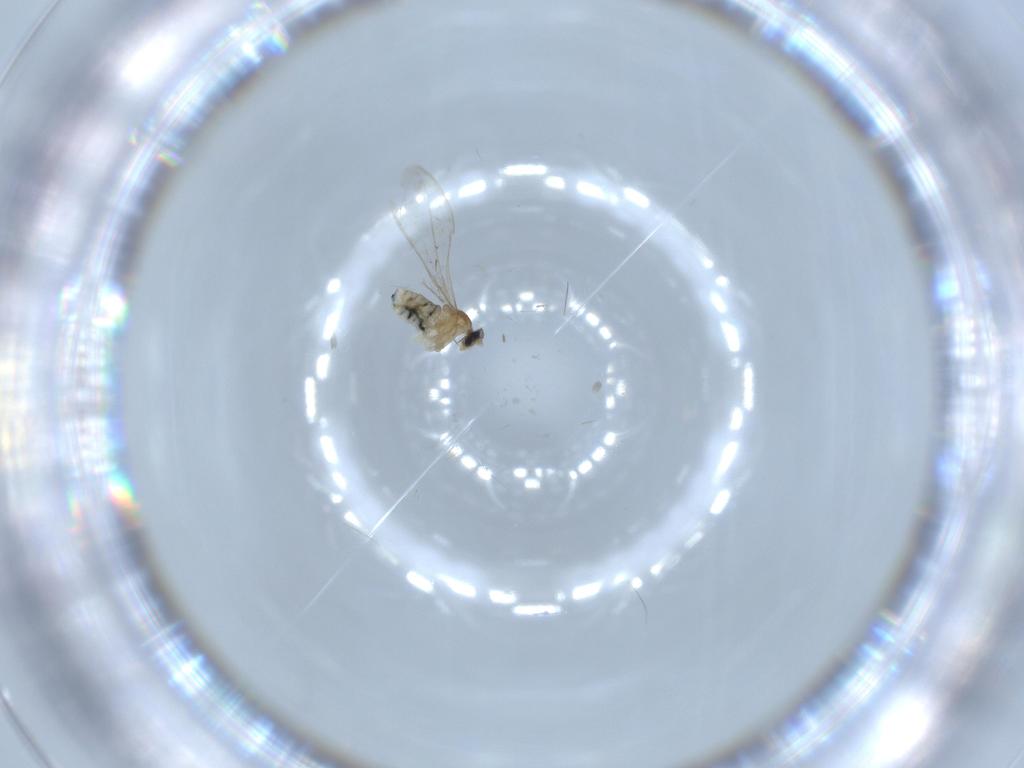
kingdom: Animalia
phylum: Arthropoda
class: Insecta
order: Diptera
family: Cecidomyiidae
